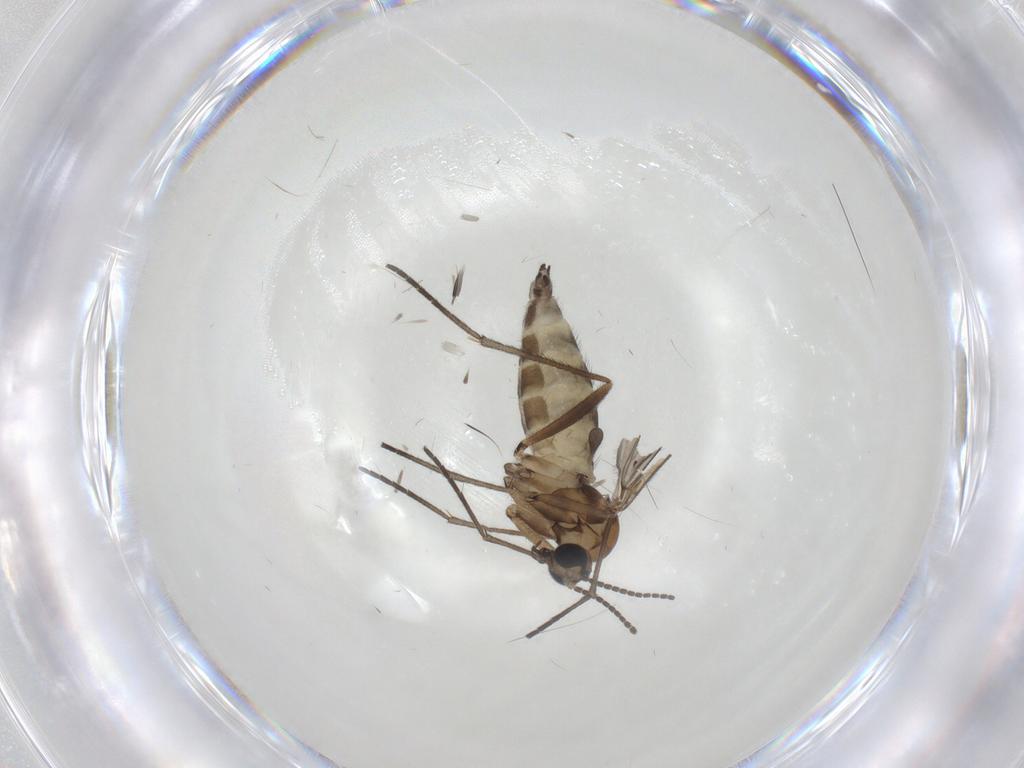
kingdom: Animalia
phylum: Arthropoda
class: Insecta
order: Diptera
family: Sciaridae
